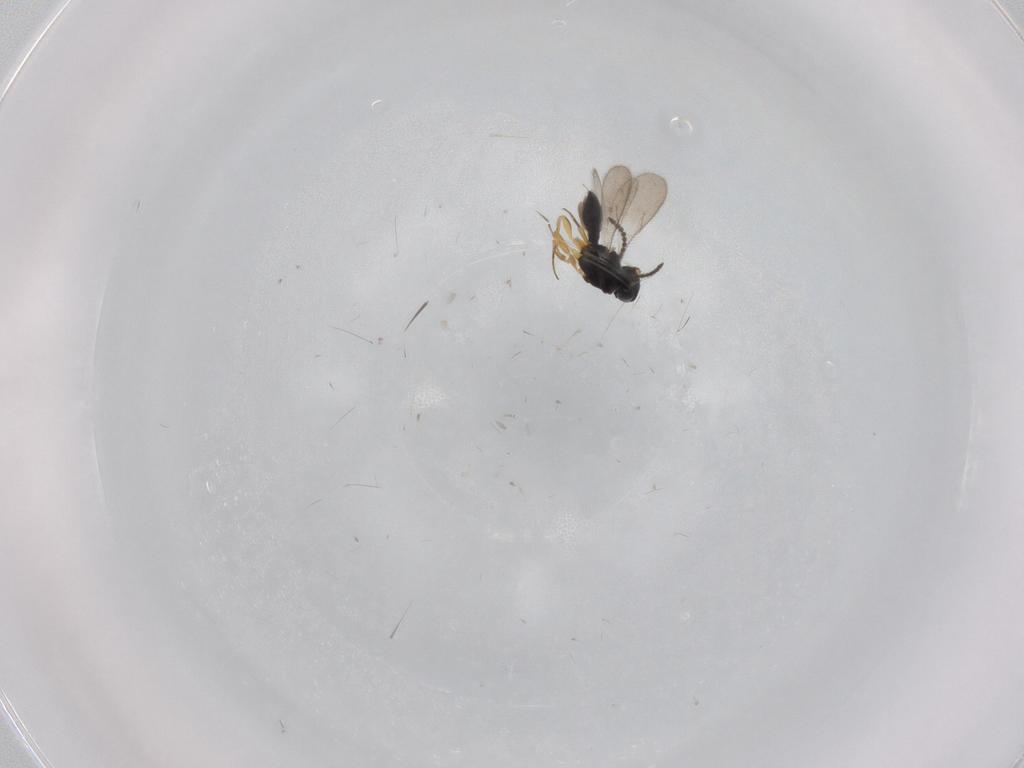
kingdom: Animalia
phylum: Arthropoda
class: Insecta
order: Hymenoptera
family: Scelionidae
